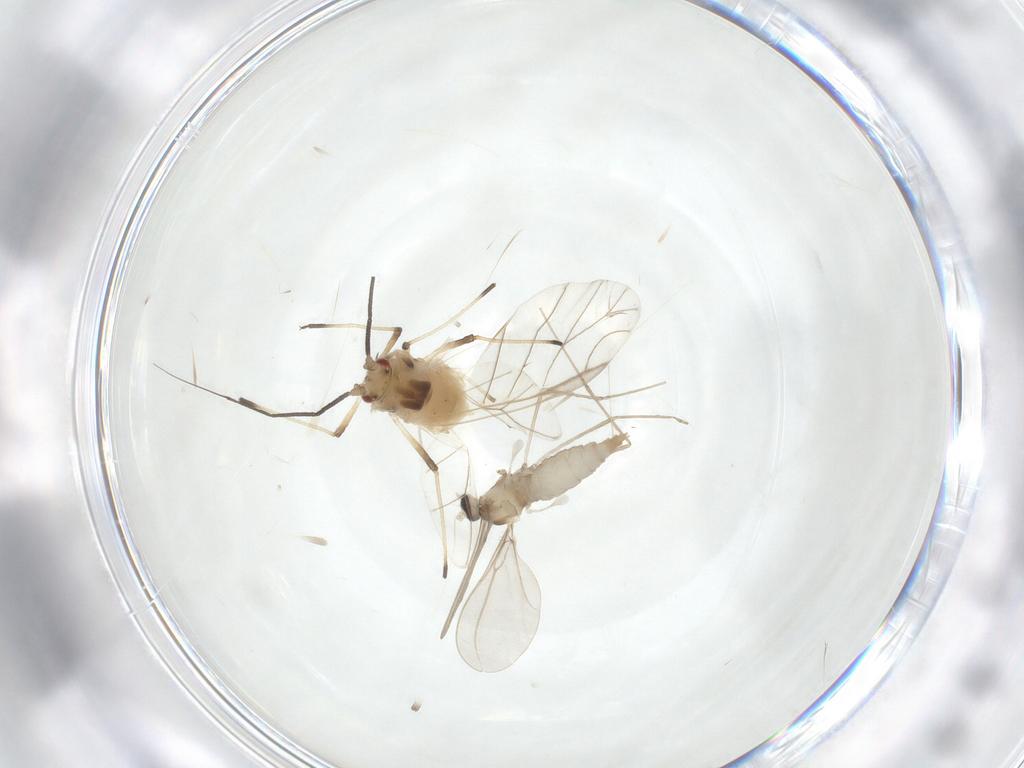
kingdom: Animalia
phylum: Arthropoda
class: Insecta
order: Diptera
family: Cecidomyiidae
